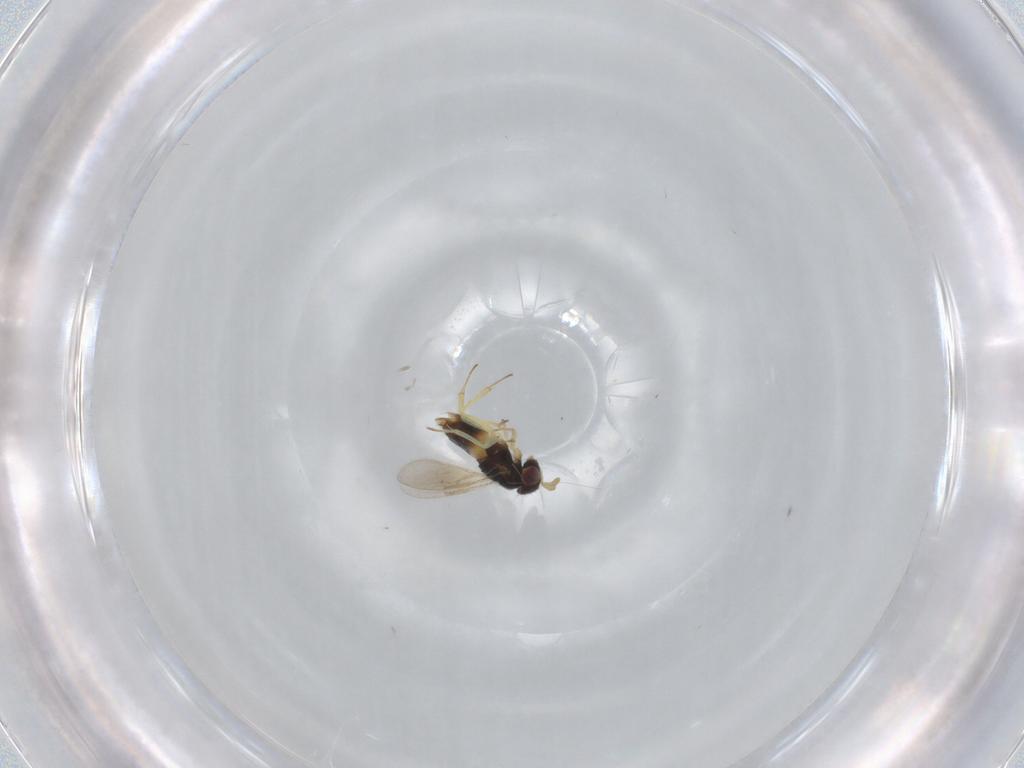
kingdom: Animalia
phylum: Arthropoda
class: Insecta
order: Hymenoptera
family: Aphelinidae
